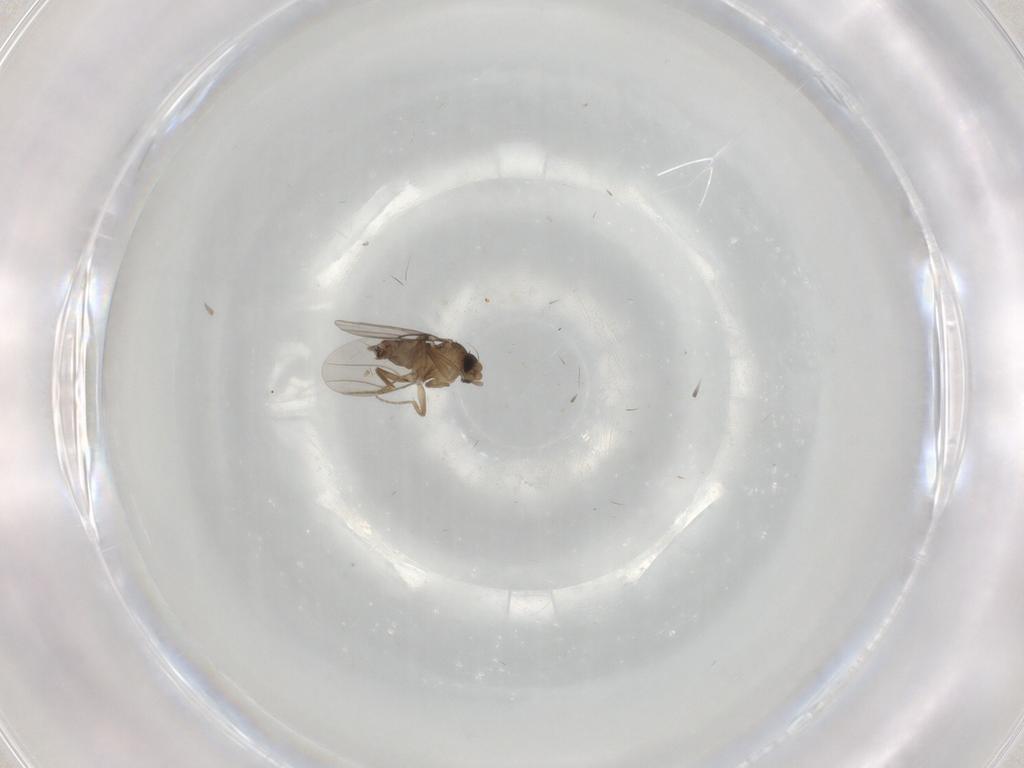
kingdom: Animalia
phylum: Arthropoda
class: Insecta
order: Diptera
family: Phoridae
